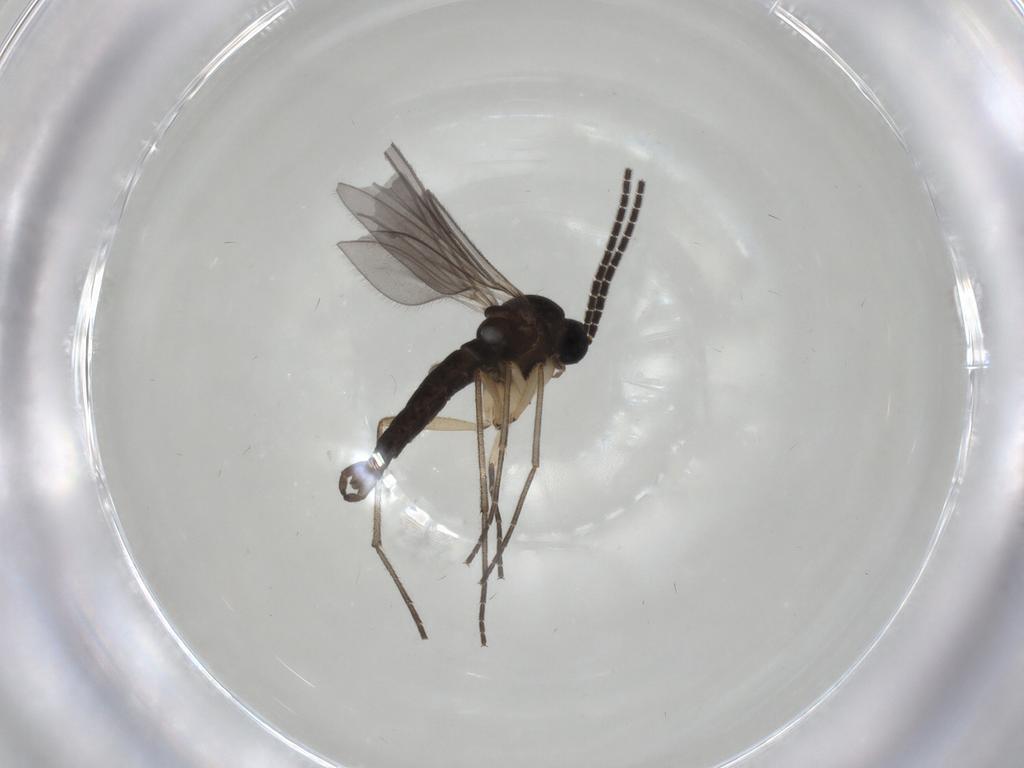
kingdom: Animalia
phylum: Arthropoda
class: Insecta
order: Diptera
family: Sciaridae
